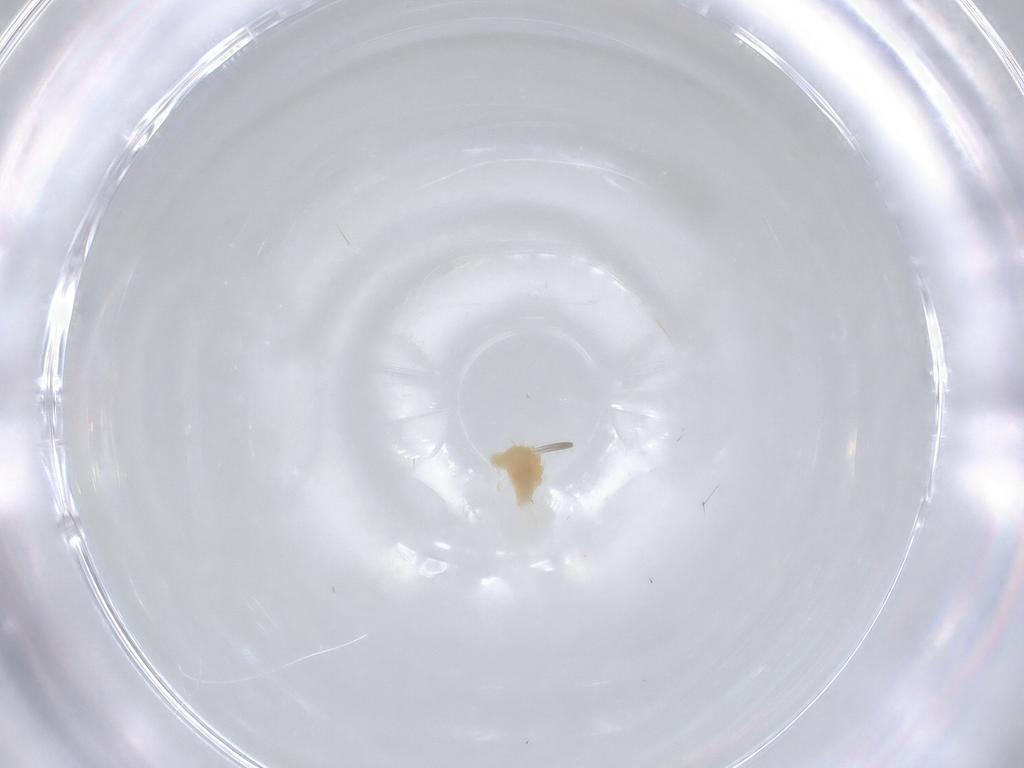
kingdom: Animalia
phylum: Arthropoda
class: Arachnida
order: Trombidiformes
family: Tetranychidae
